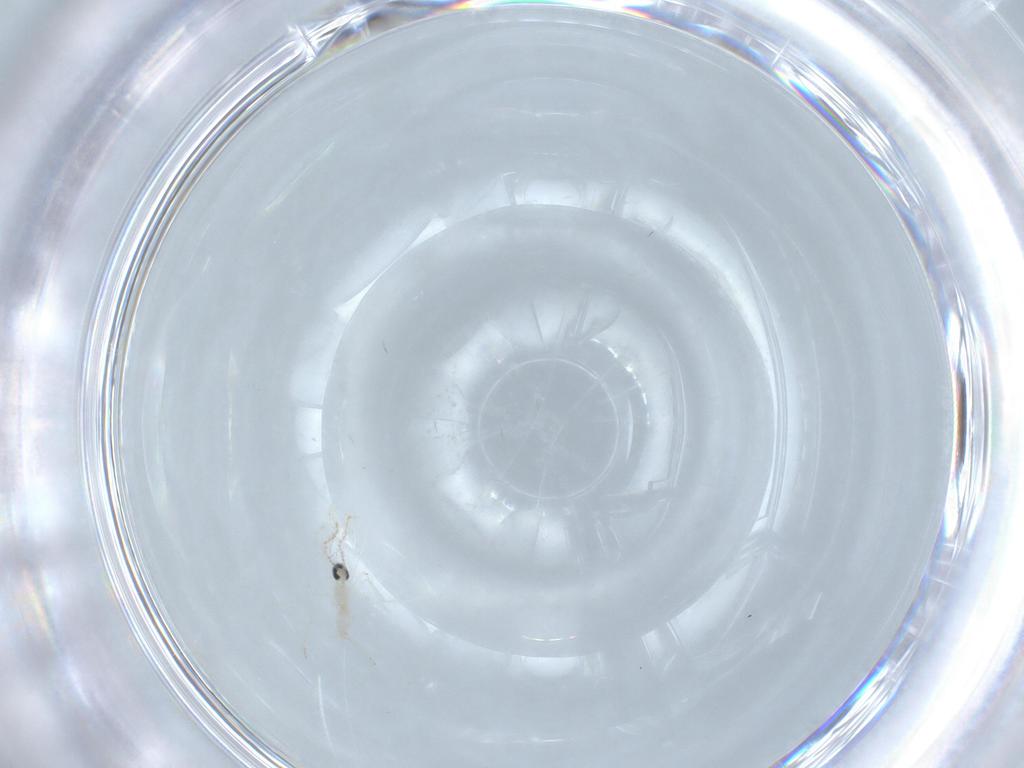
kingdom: Animalia
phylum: Arthropoda
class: Insecta
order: Diptera
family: Cecidomyiidae
